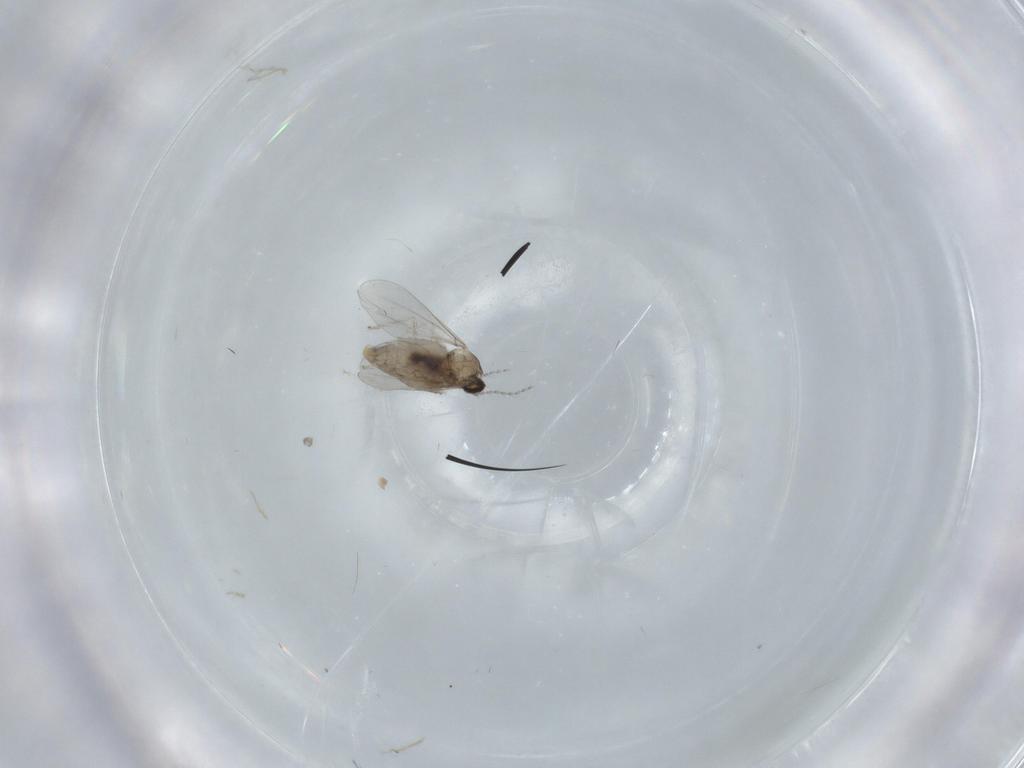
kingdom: Animalia
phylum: Arthropoda
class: Insecta
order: Diptera
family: Cecidomyiidae
